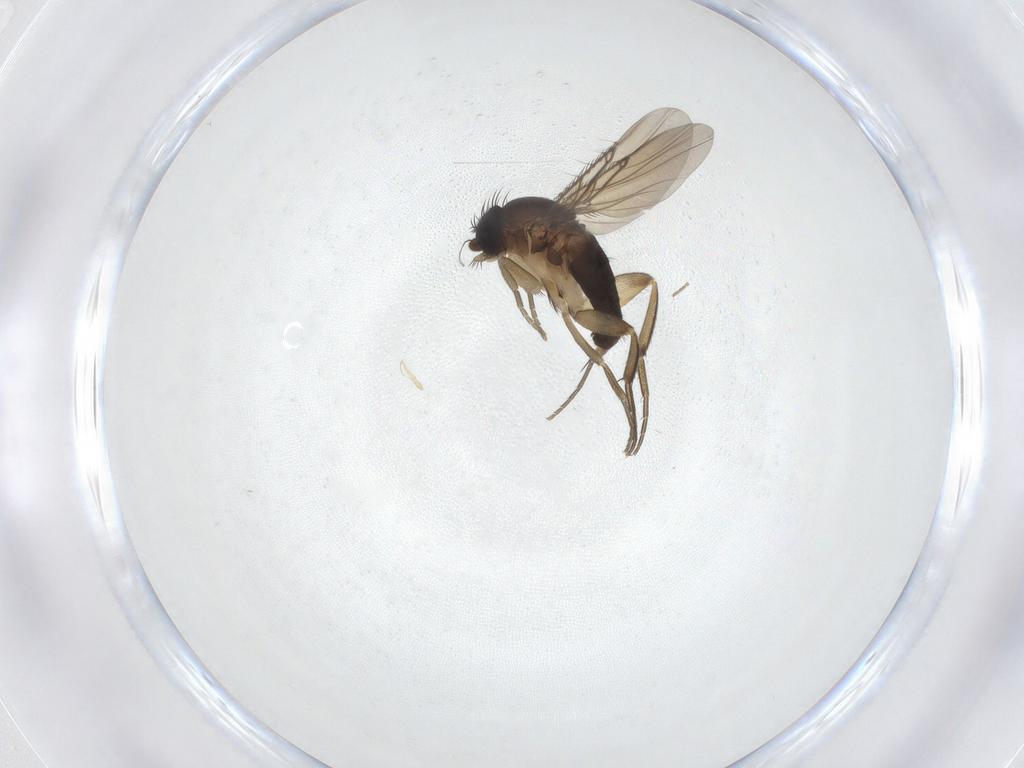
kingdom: Animalia
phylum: Arthropoda
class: Insecta
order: Diptera
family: Phoridae
